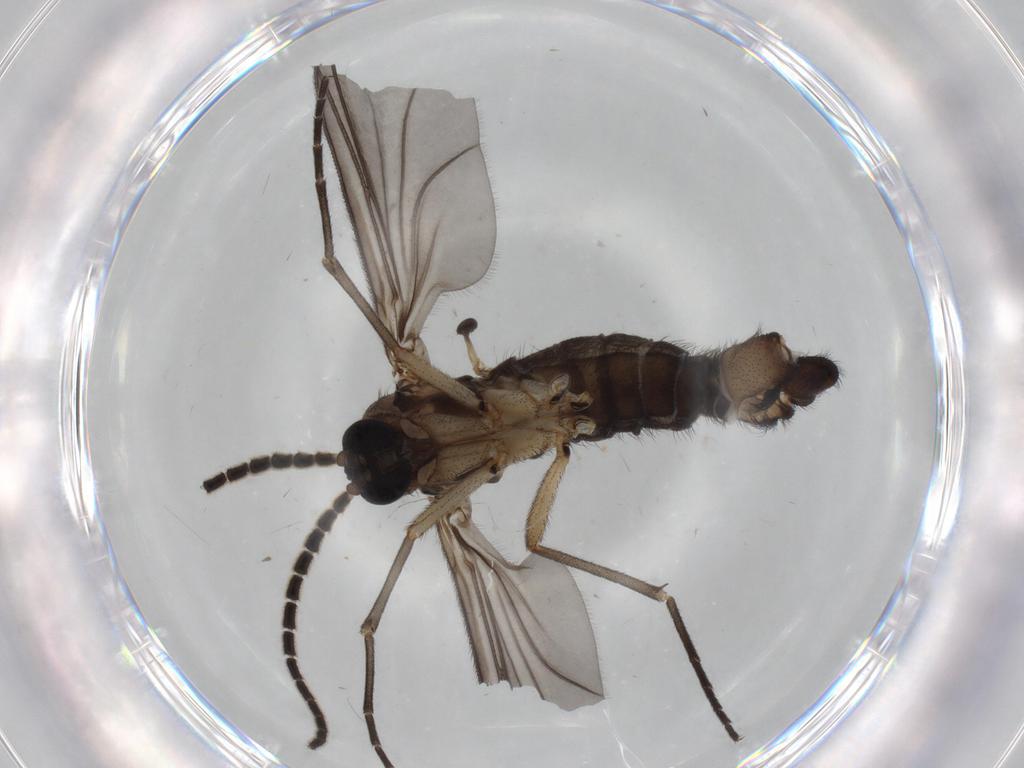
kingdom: Animalia
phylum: Arthropoda
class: Insecta
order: Diptera
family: Sciaridae
